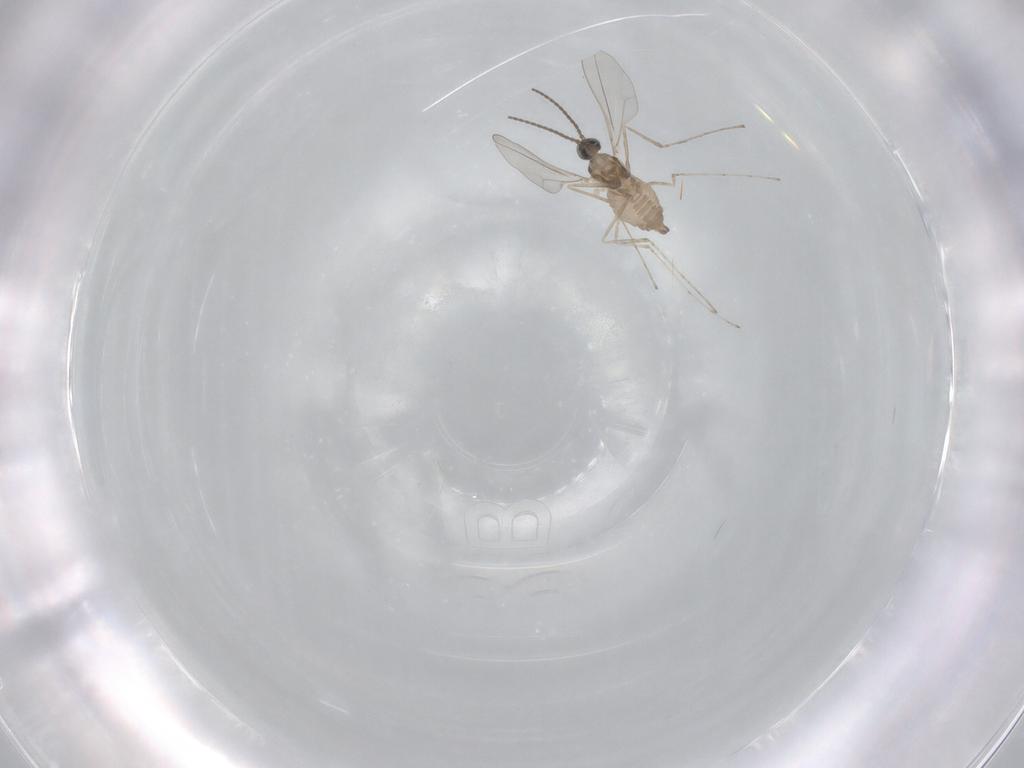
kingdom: Animalia
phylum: Arthropoda
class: Insecta
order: Diptera
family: Cecidomyiidae
